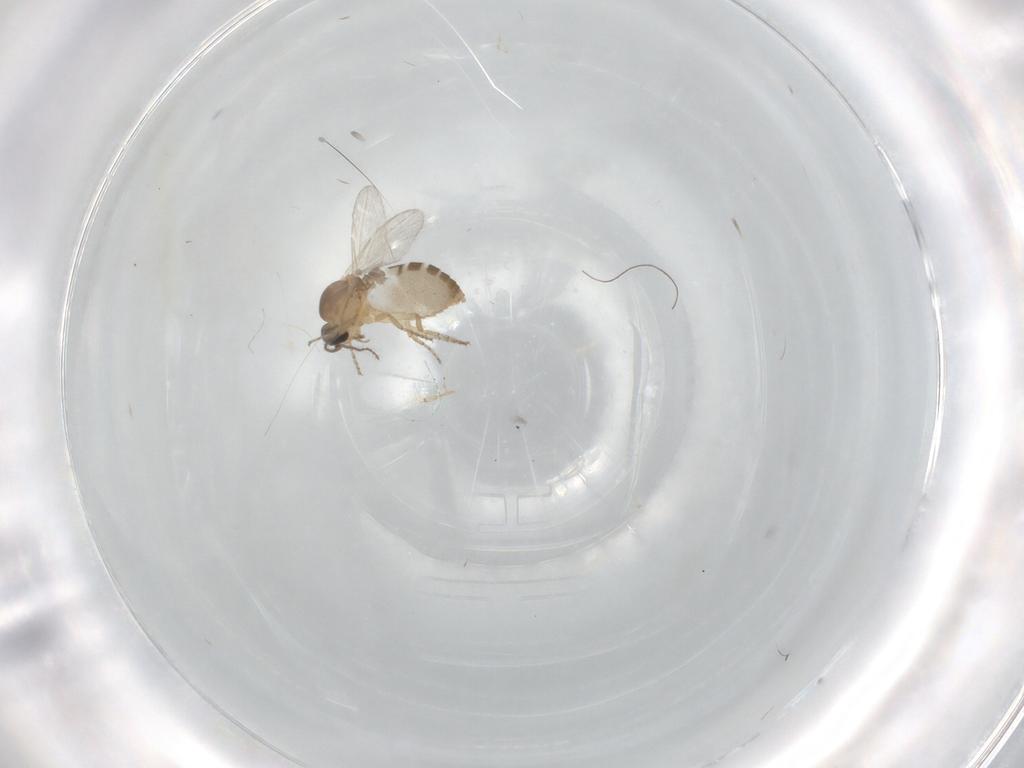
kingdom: Animalia
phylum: Arthropoda
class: Insecta
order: Diptera
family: Ceratopogonidae
